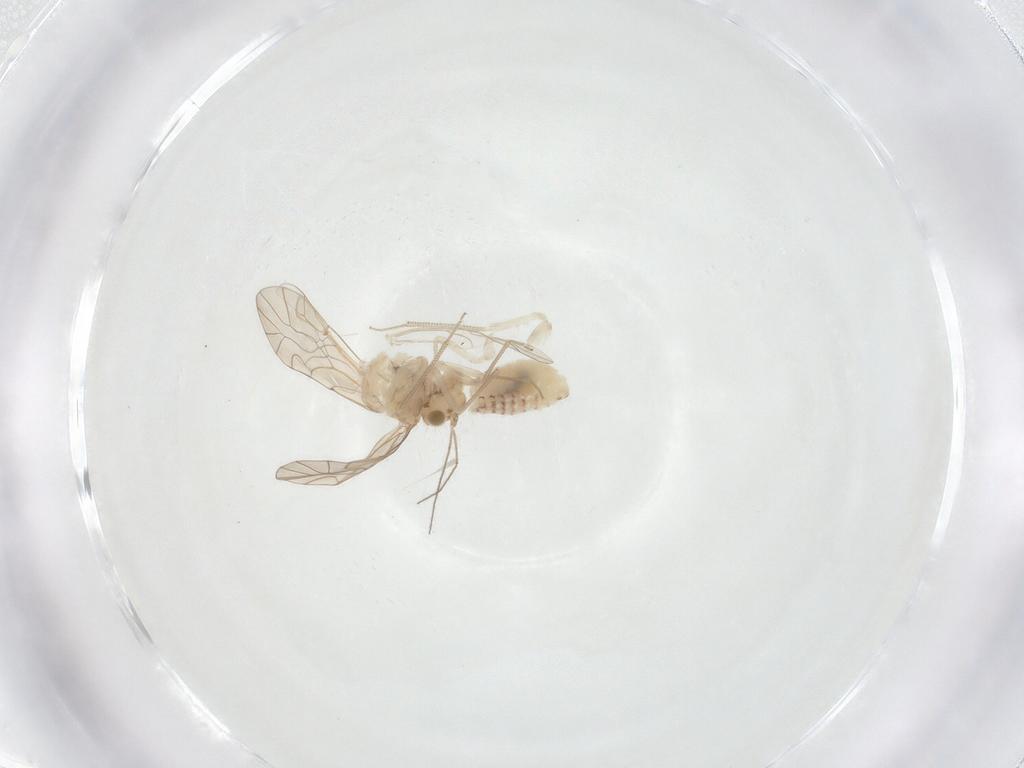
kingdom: Animalia
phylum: Arthropoda
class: Insecta
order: Psocodea
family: Lachesillidae
